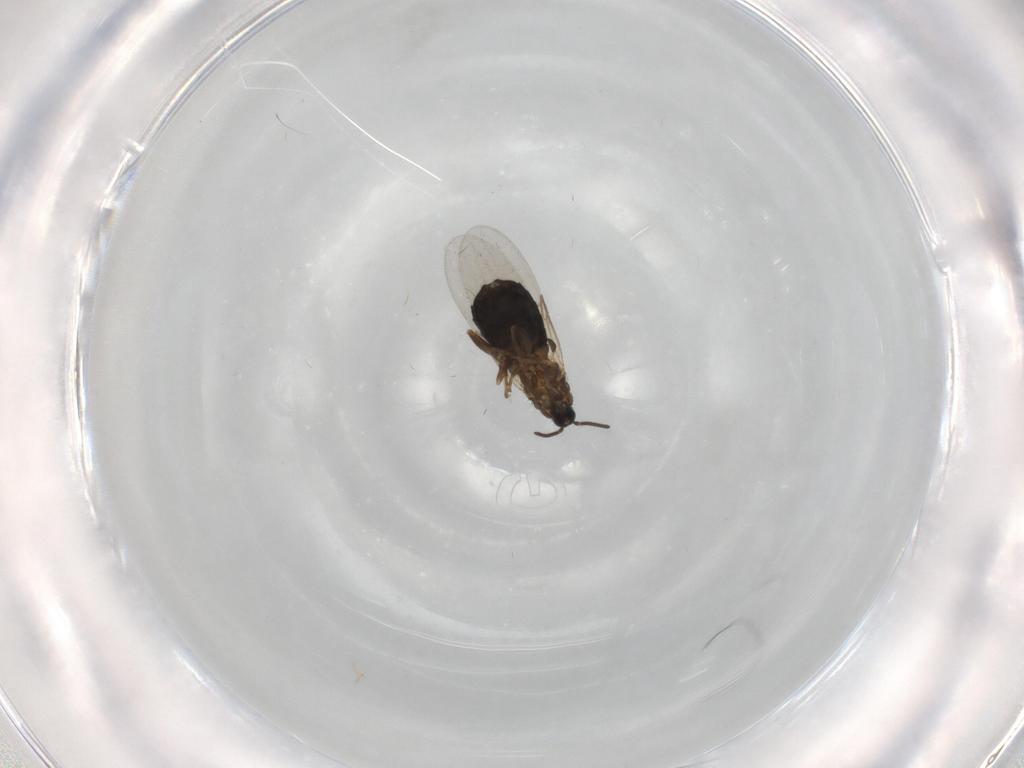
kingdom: Animalia
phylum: Arthropoda
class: Insecta
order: Diptera
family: Scatopsidae
